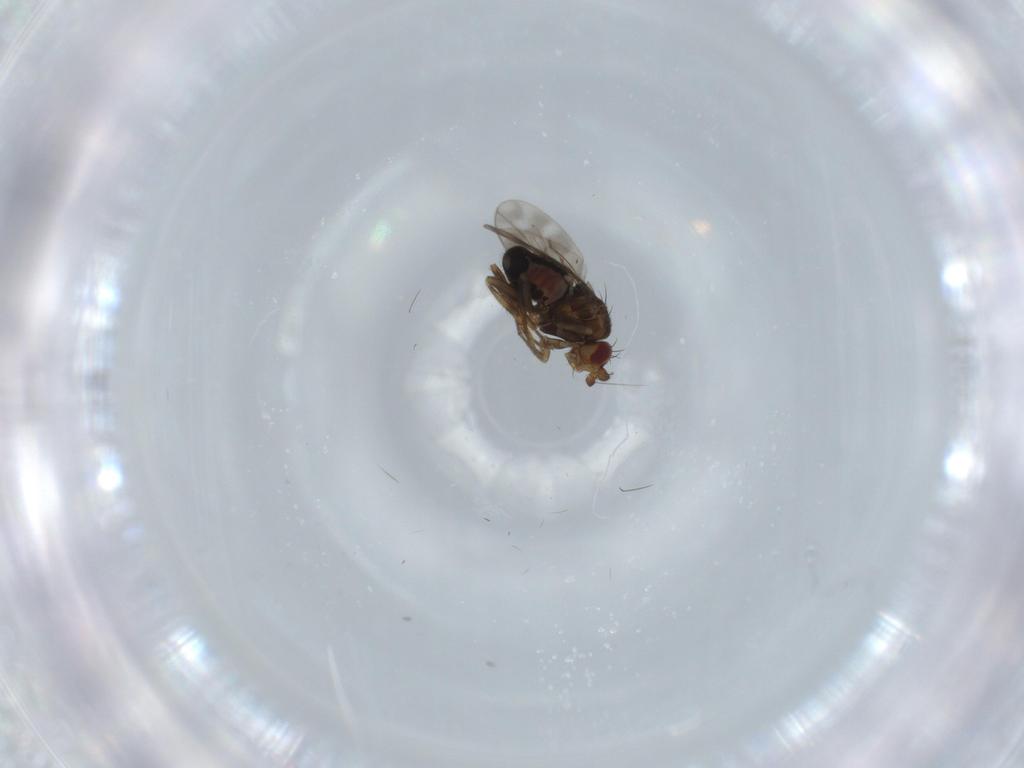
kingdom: Animalia
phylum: Arthropoda
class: Insecta
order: Diptera
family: Sphaeroceridae
